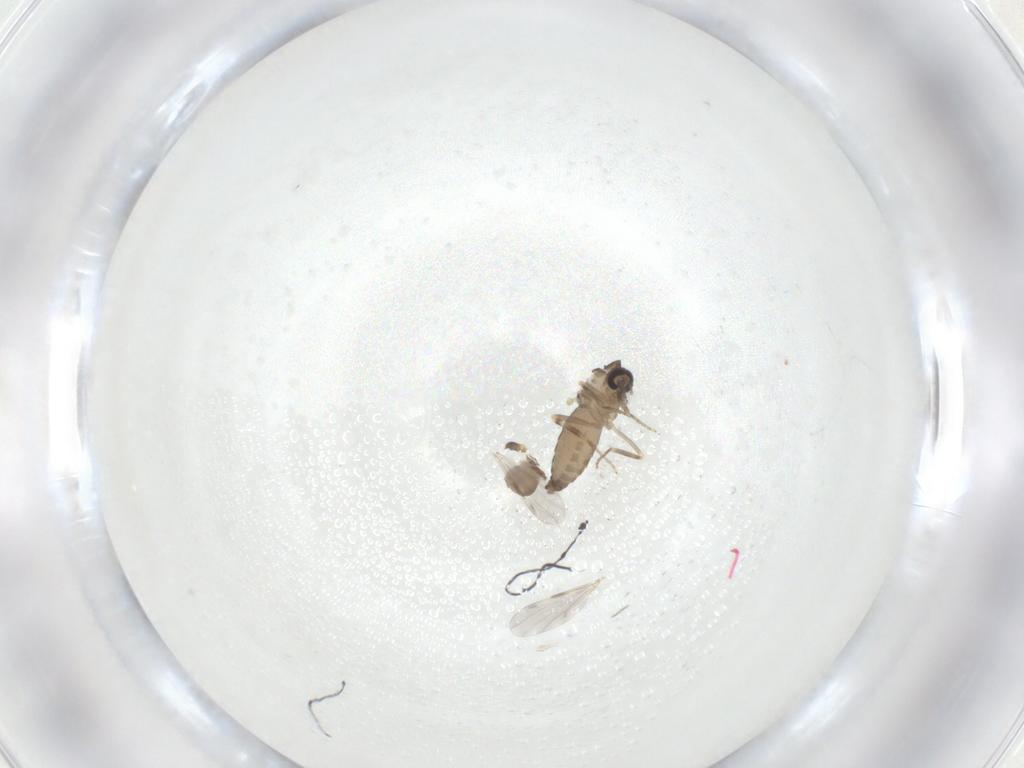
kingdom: Animalia
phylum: Arthropoda
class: Insecta
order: Diptera
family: Ceratopogonidae
